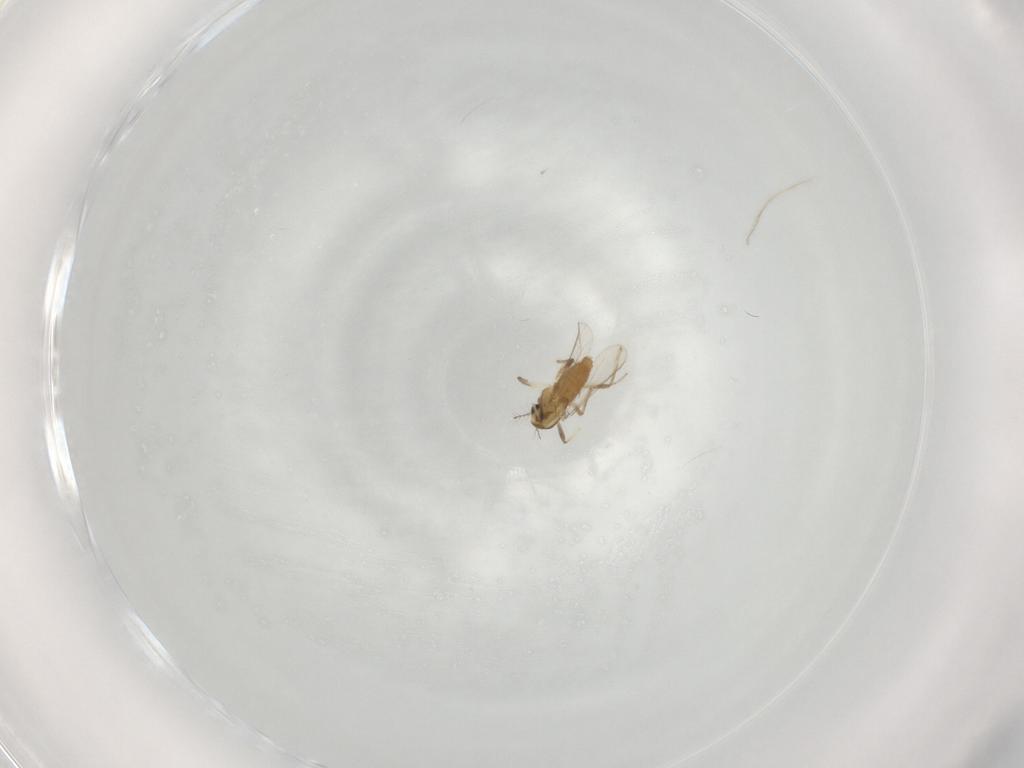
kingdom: Animalia
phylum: Arthropoda
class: Insecta
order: Diptera
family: Chironomidae
